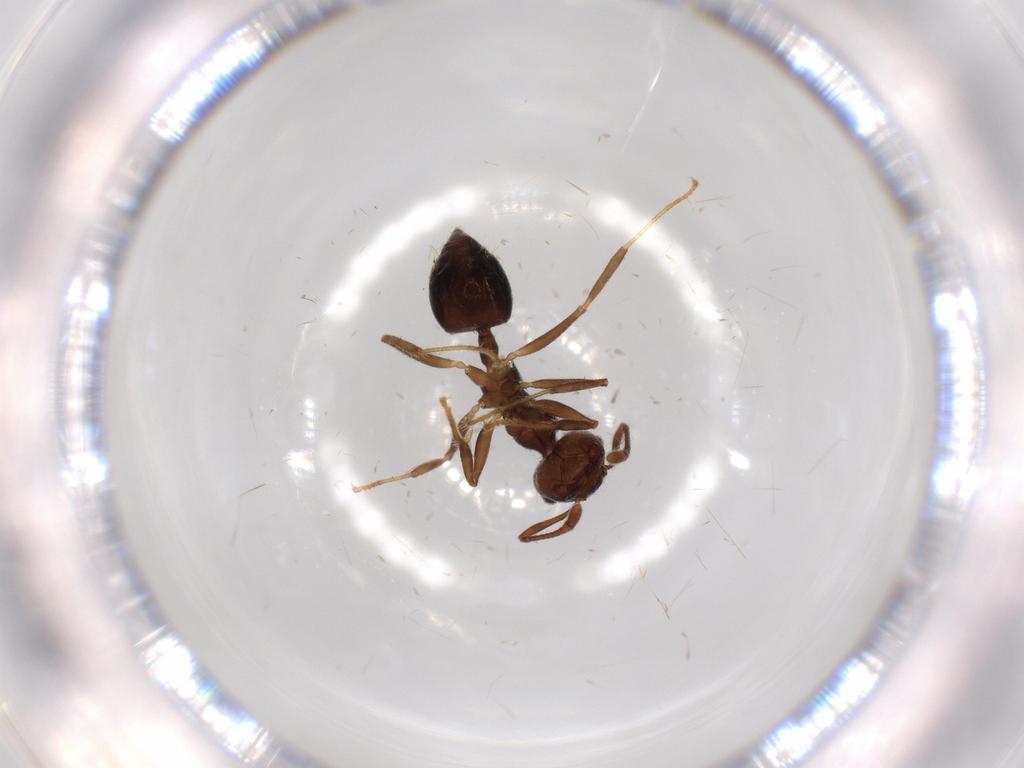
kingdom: Animalia
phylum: Arthropoda
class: Insecta
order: Hymenoptera
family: Formicidae
